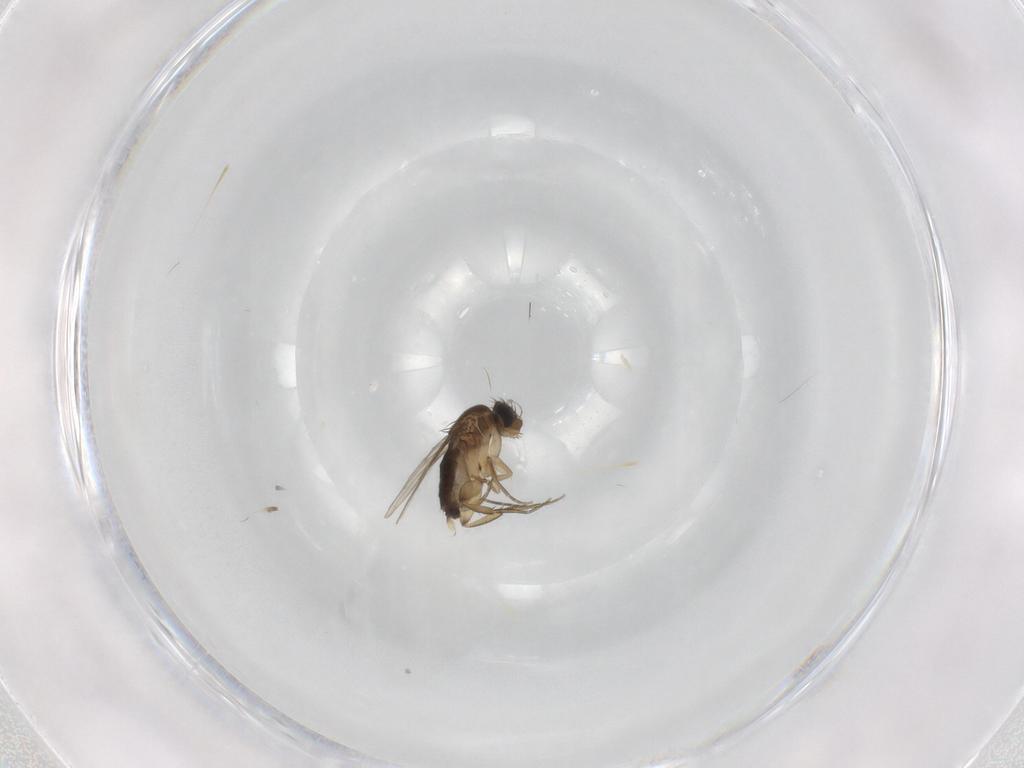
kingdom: Animalia
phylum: Arthropoda
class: Insecta
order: Diptera
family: Phoridae
